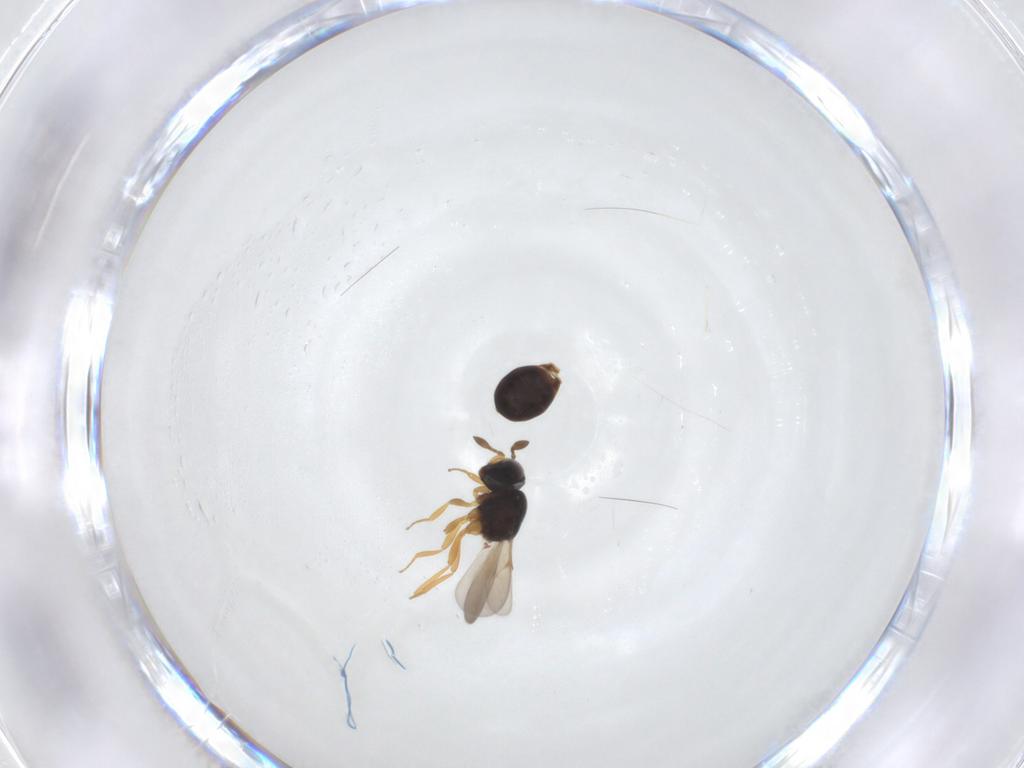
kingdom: Animalia
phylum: Arthropoda
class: Insecta
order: Hymenoptera
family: Scelionidae
